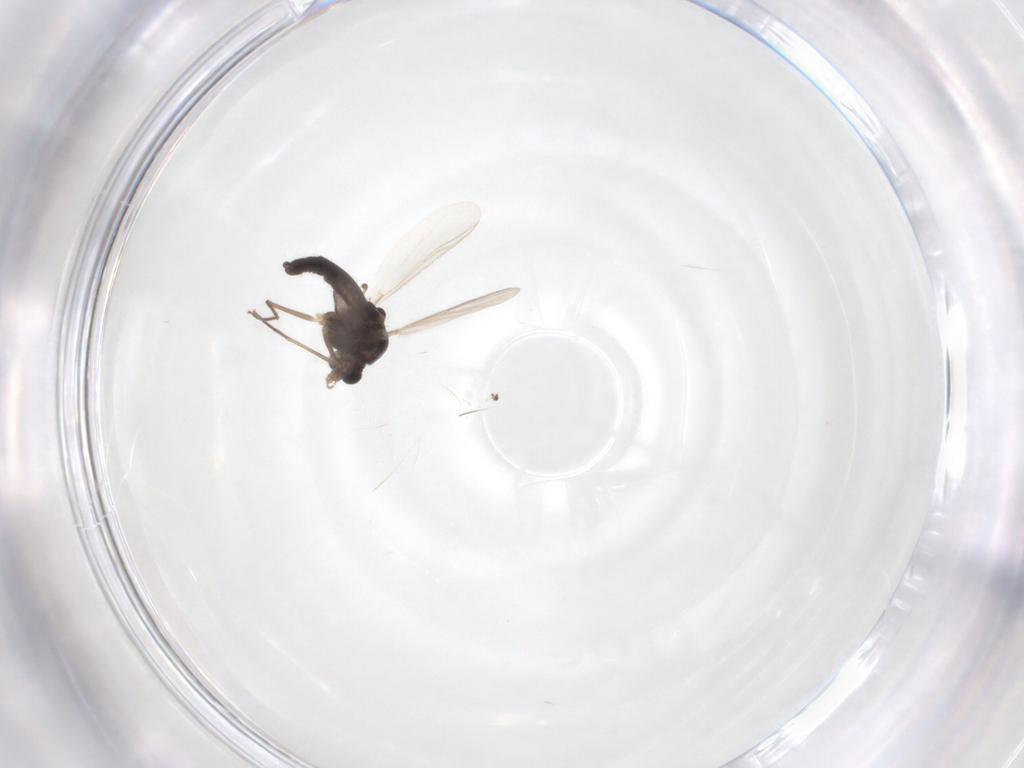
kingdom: Animalia
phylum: Arthropoda
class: Insecta
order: Diptera
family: Chironomidae
